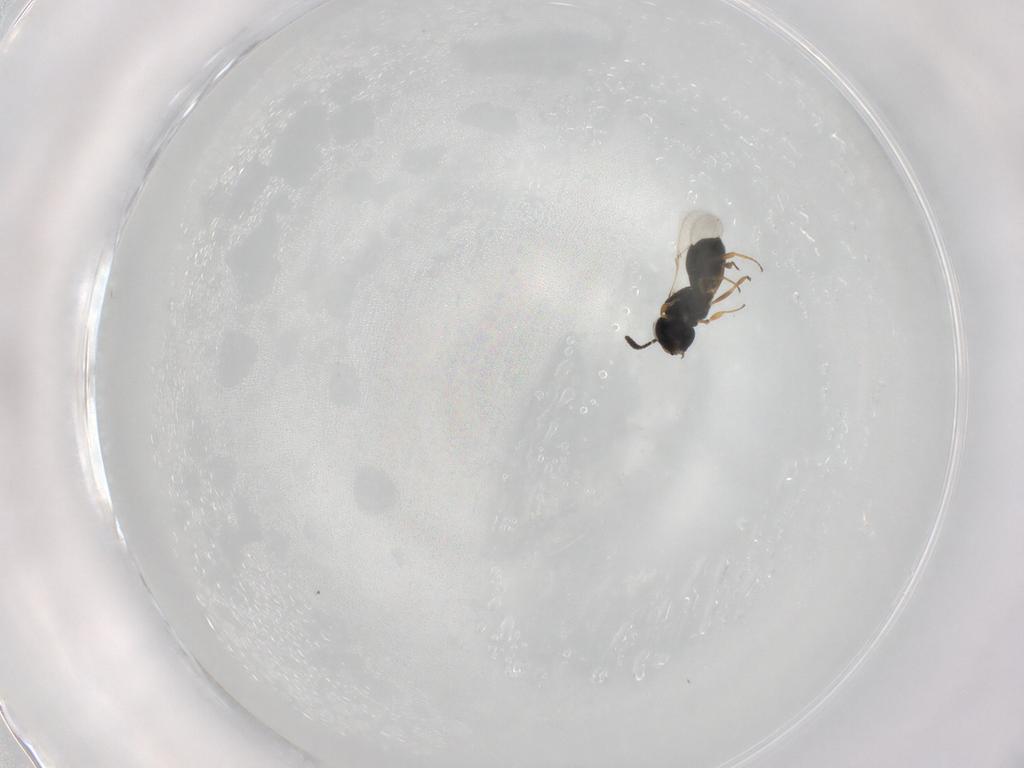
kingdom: Animalia
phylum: Arthropoda
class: Insecta
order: Hymenoptera
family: Scelionidae
